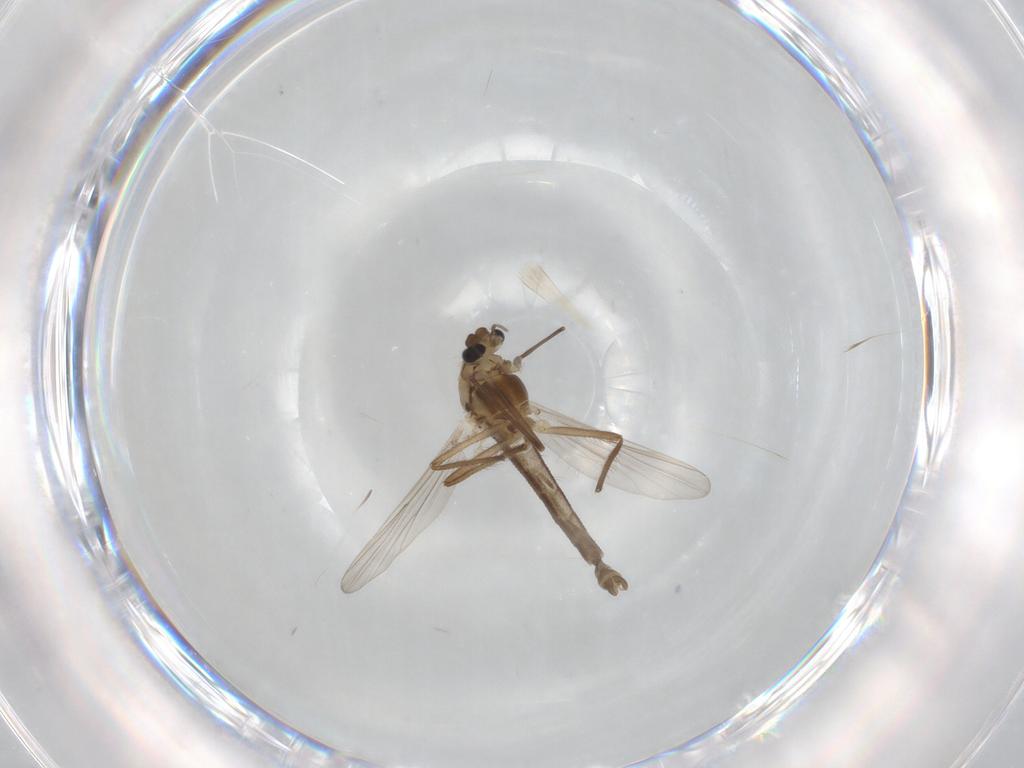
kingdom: Animalia
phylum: Arthropoda
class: Insecta
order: Diptera
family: Chironomidae
